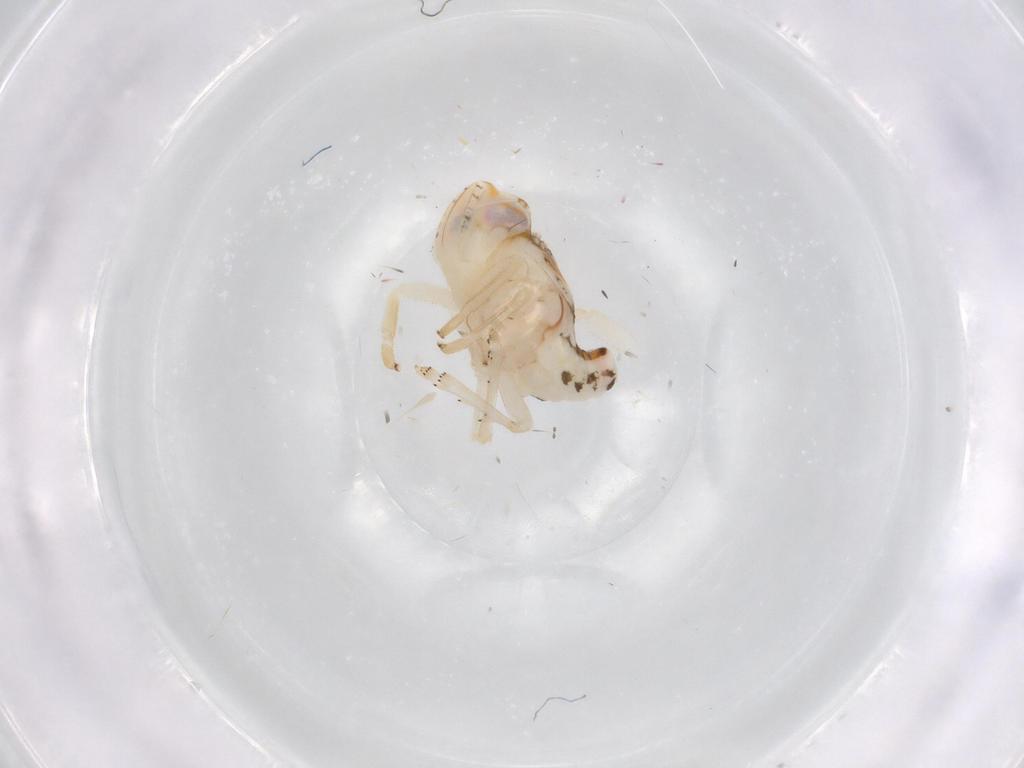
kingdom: Animalia
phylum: Arthropoda
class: Insecta
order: Hemiptera
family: Nogodinidae
